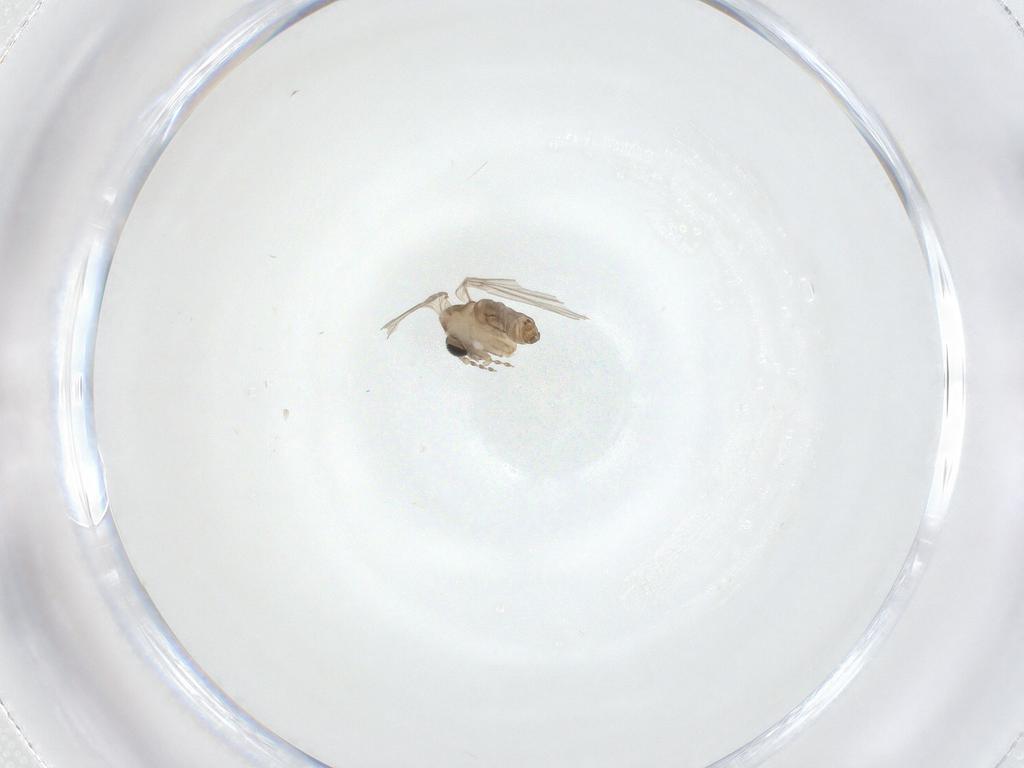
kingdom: Animalia
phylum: Arthropoda
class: Insecta
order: Diptera
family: Psychodidae
